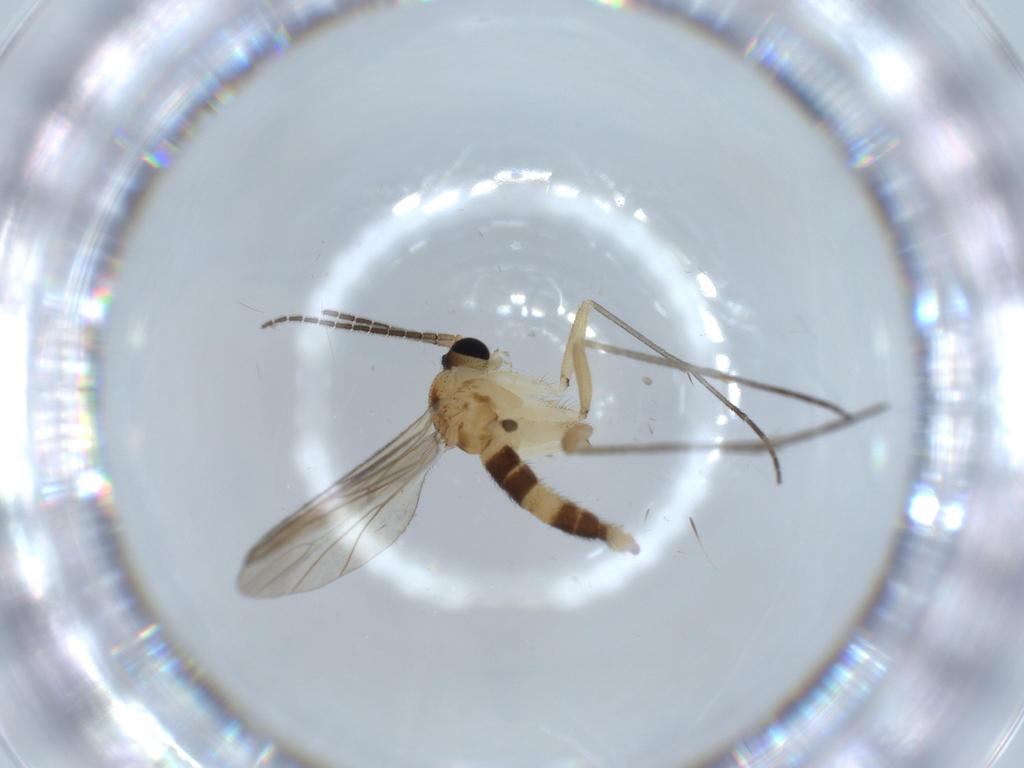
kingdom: Animalia
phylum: Arthropoda
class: Insecta
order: Diptera
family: Sciaridae
